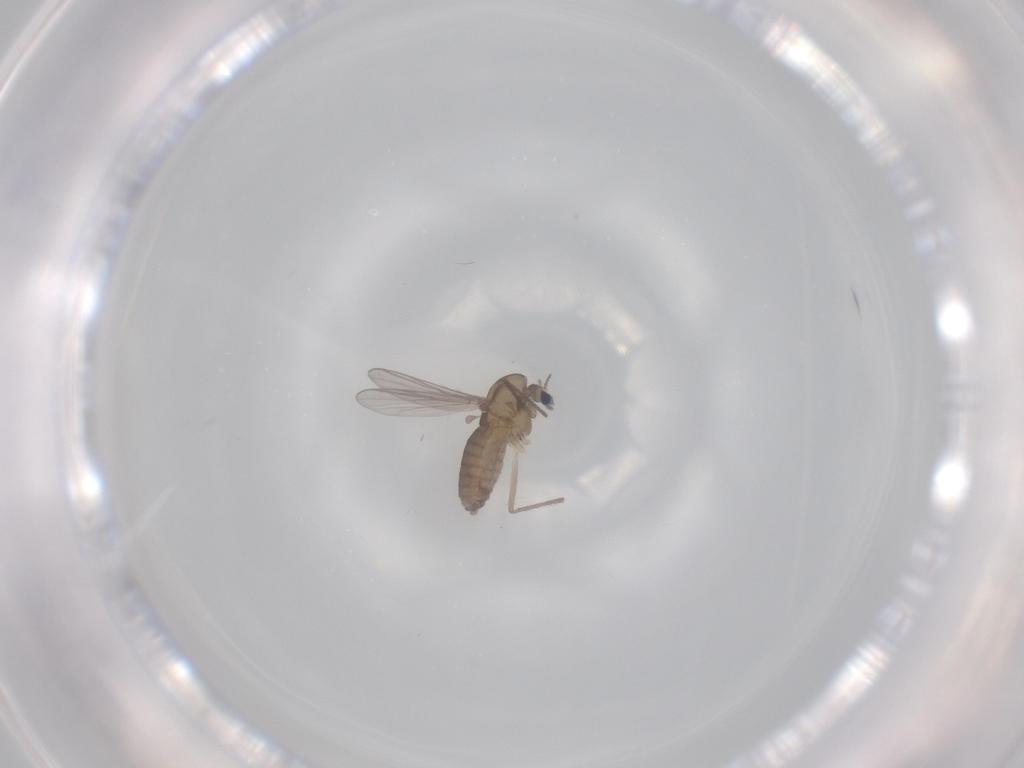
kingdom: Animalia
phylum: Arthropoda
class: Insecta
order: Diptera
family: Chironomidae
